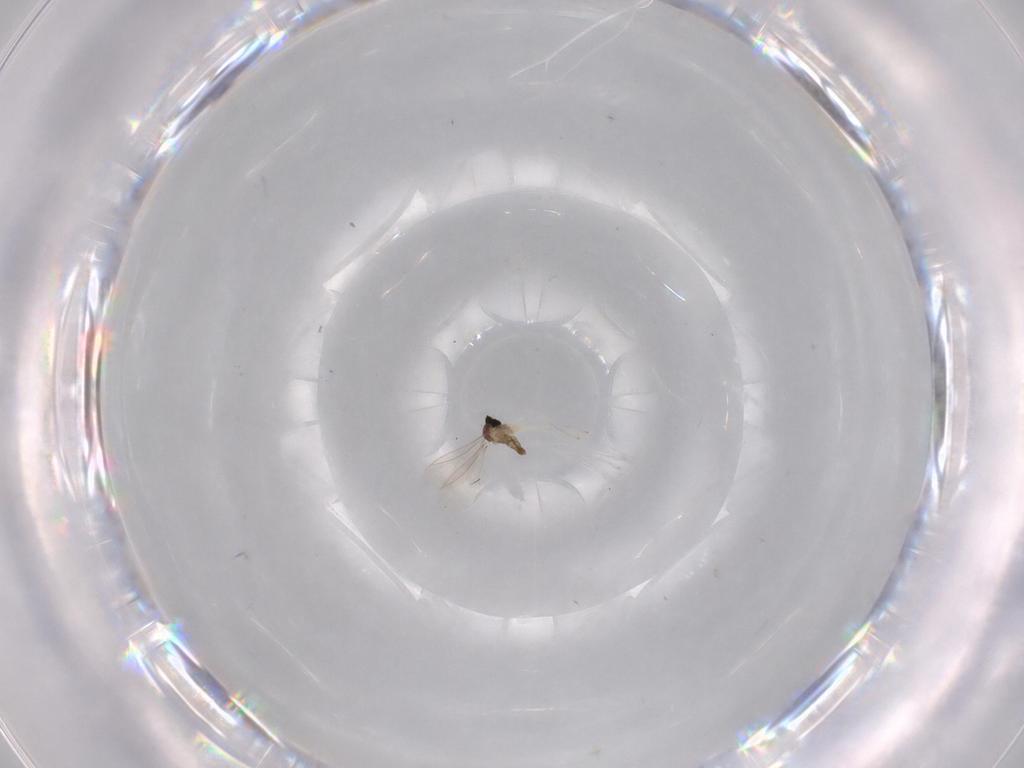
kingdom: Animalia
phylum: Arthropoda
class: Insecta
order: Diptera
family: Cecidomyiidae
